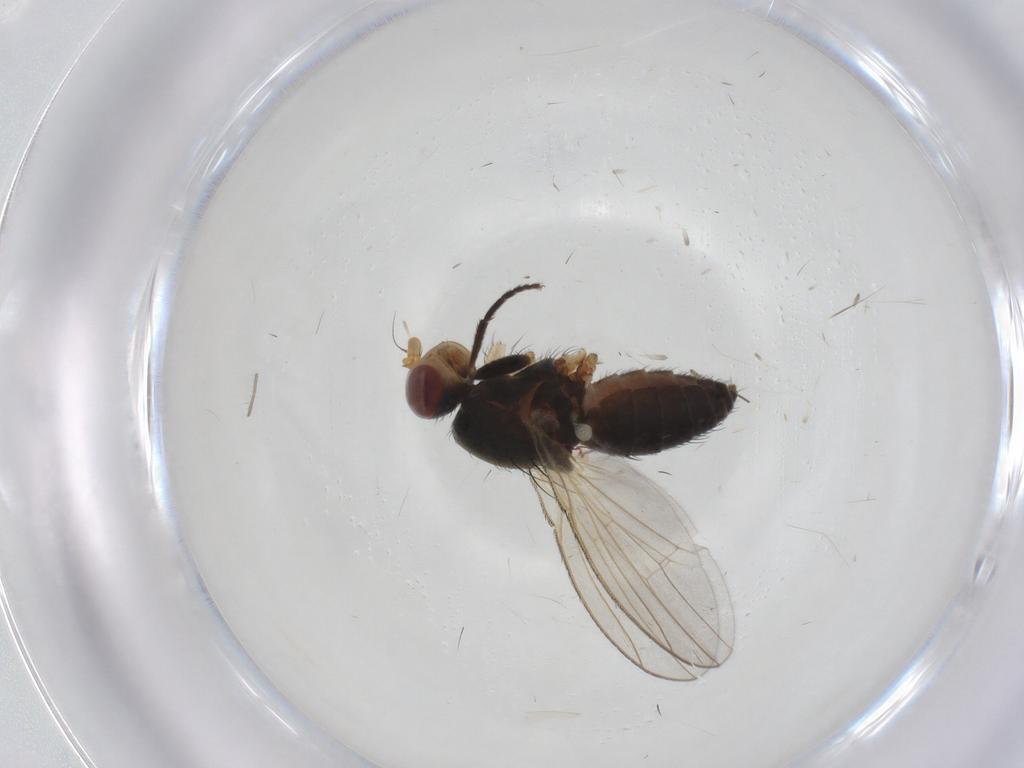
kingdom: Animalia
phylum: Arthropoda
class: Insecta
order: Diptera
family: Heleomyzidae
